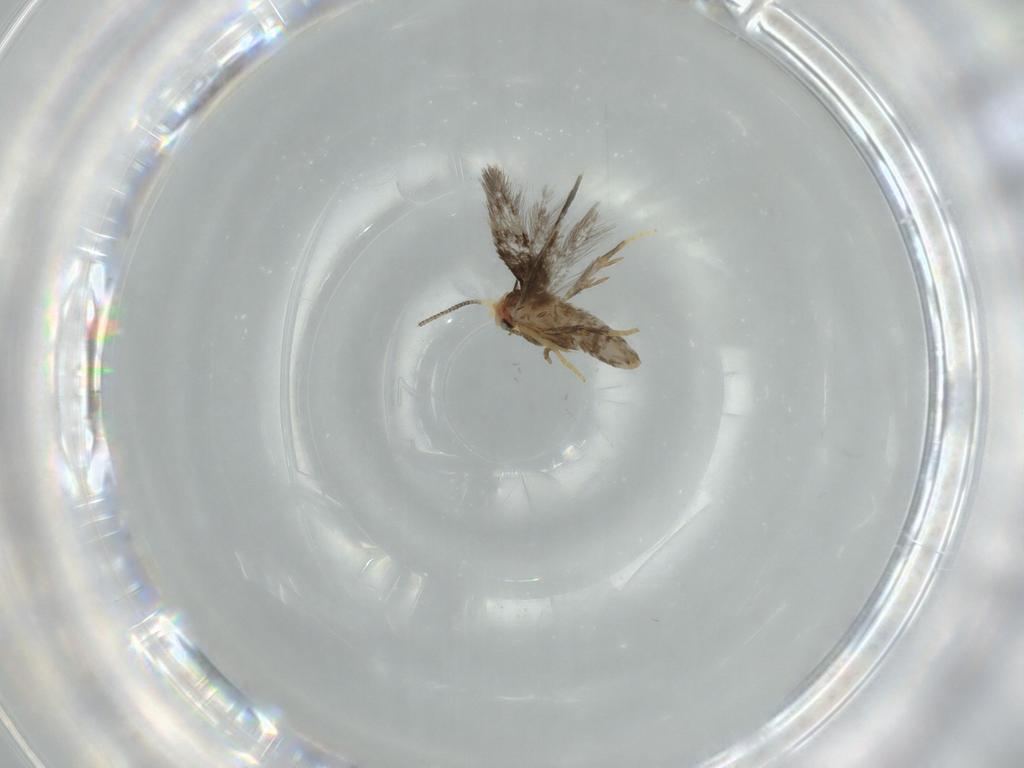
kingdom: Animalia
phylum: Arthropoda
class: Insecta
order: Lepidoptera
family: Nepticulidae
